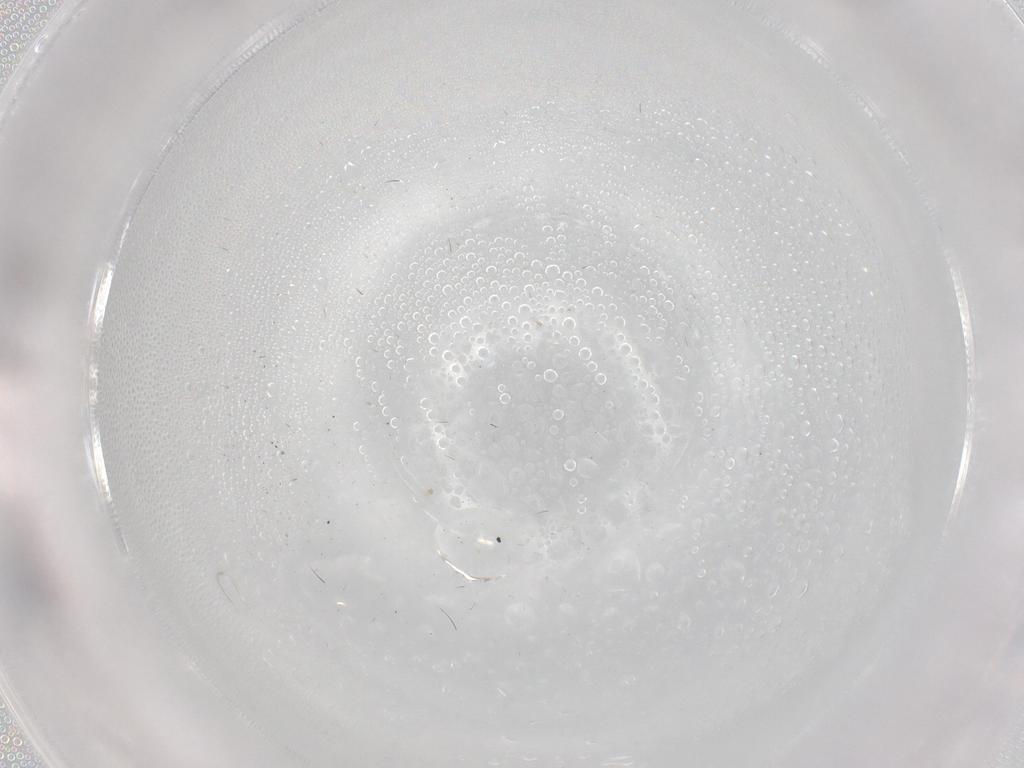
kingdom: Animalia
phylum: Arthropoda
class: Insecta
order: Diptera
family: Hybotidae
